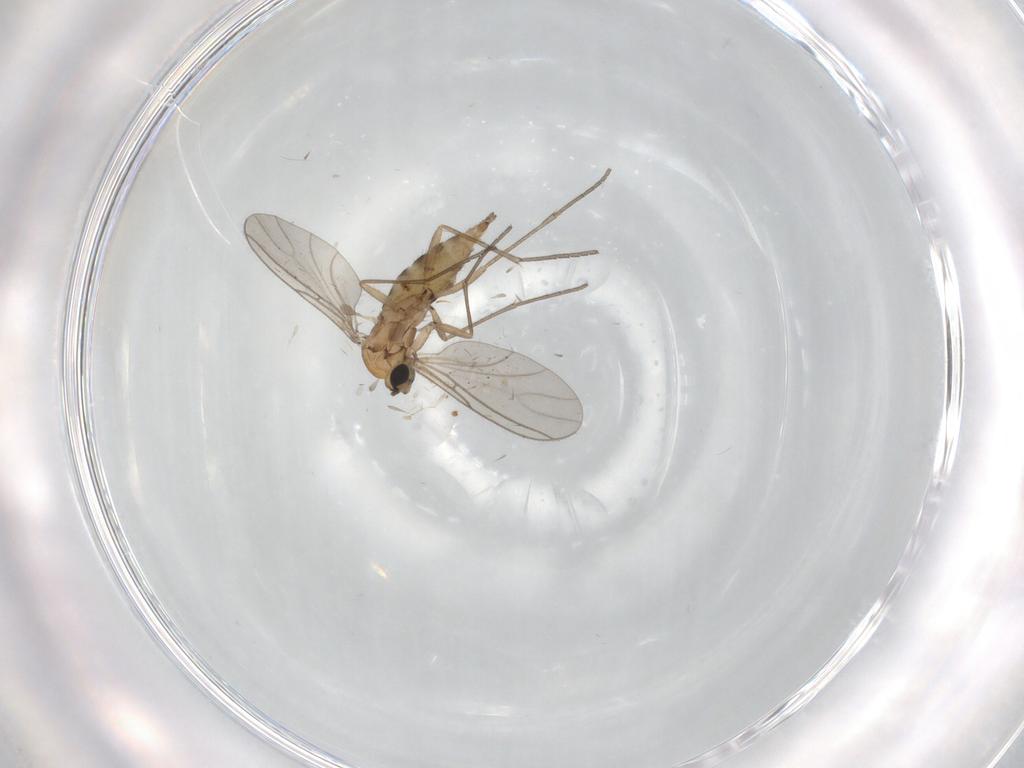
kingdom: Animalia
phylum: Arthropoda
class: Insecta
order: Diptera
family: Sciaridae
